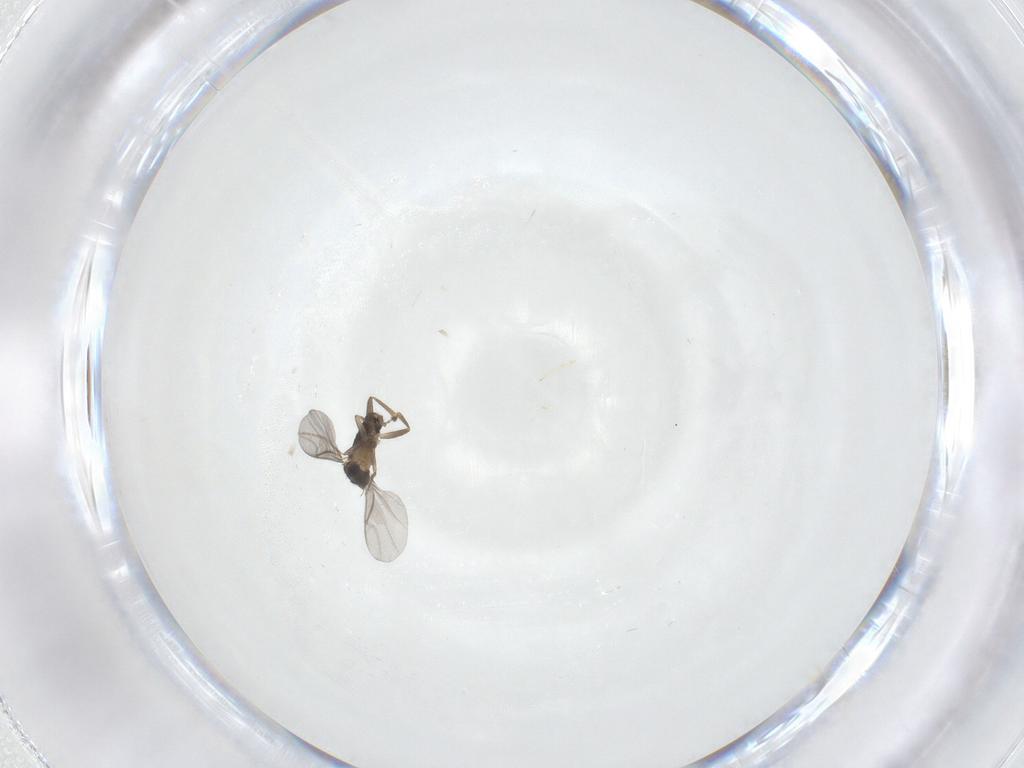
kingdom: Animalia
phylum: Arthropoda
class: Insecta
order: Diptera
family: Phoridae
